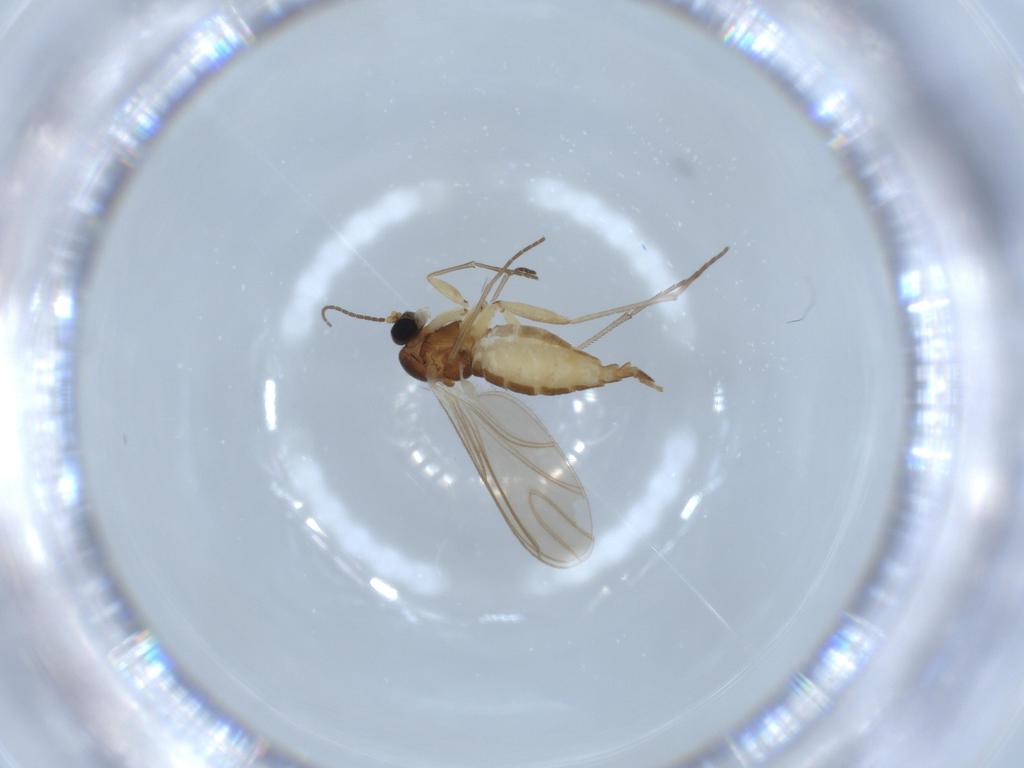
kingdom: Animalia
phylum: Arthropoda
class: Insecta
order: Diptera
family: Sciaridae
